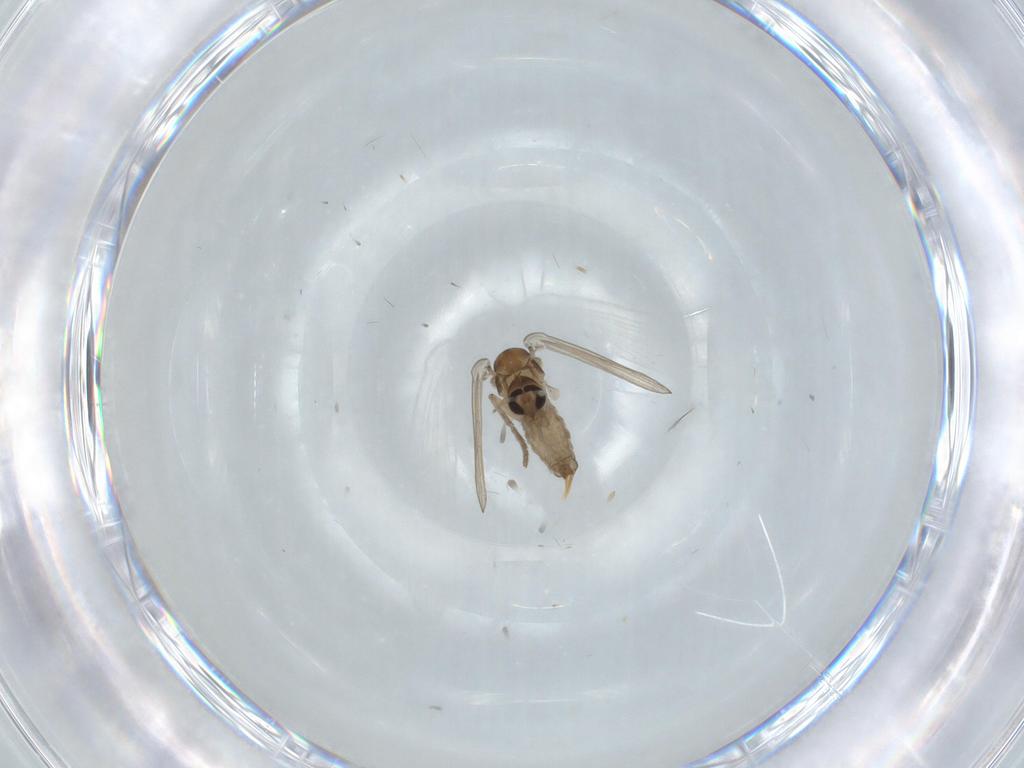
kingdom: Animalia
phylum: Arthropoda
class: Insecta
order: Diptera
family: Psychodidae
